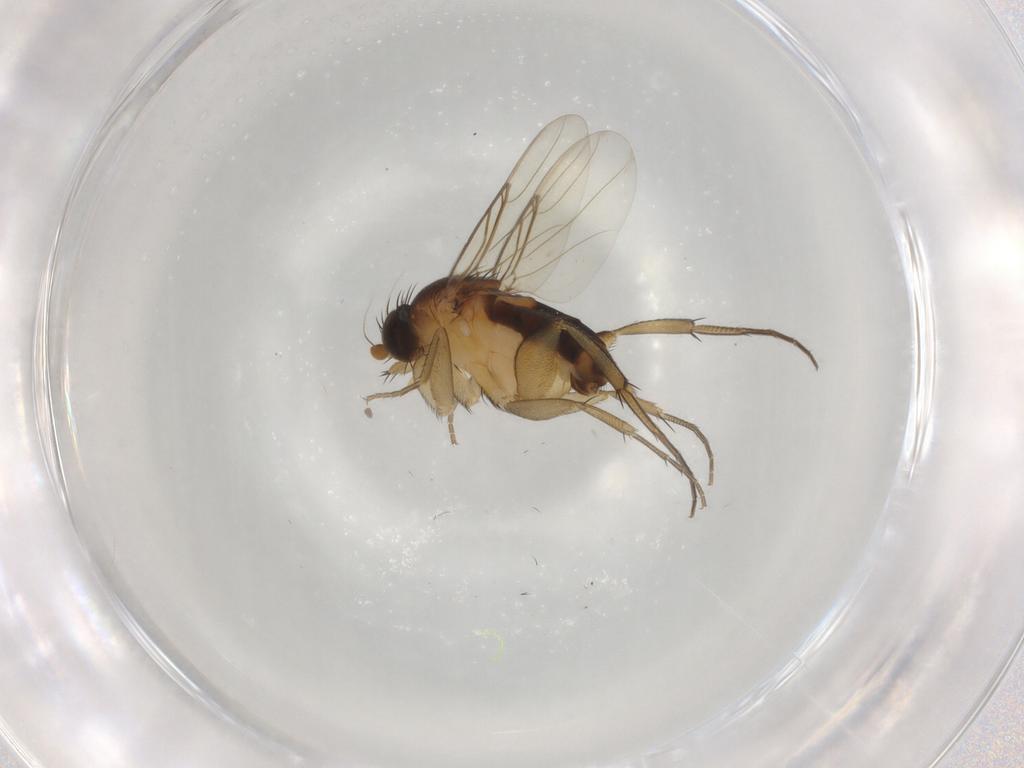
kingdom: Animalia
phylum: Arthropoda
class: Insecta
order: Diptera
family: Phoridae
